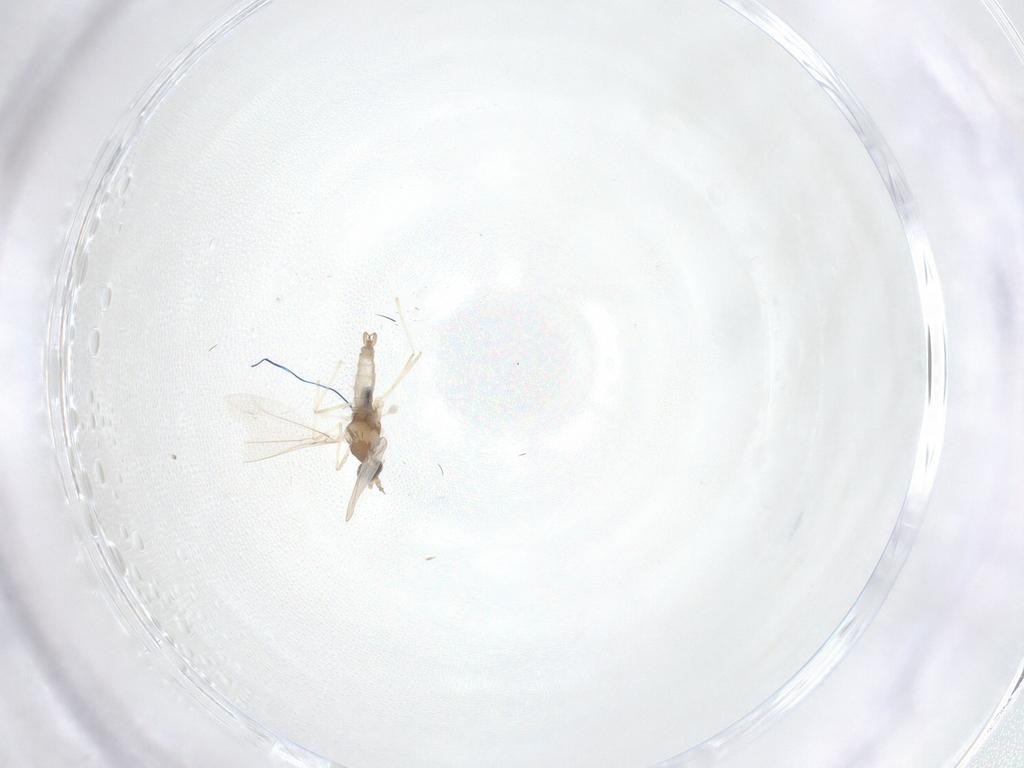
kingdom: Animalia
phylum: Arthropoda
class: Insecta
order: Diptera
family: Cecidomyiidae
